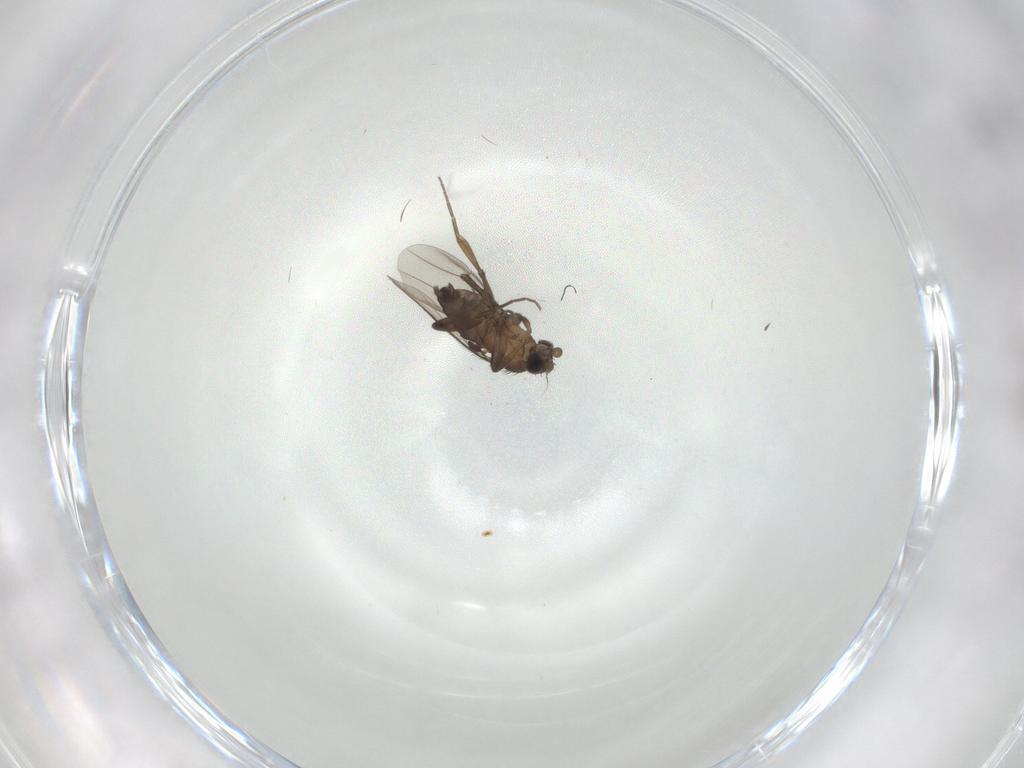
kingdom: Animalia
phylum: Arthropoda
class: Insecta
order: Diptera
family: Phoridae
